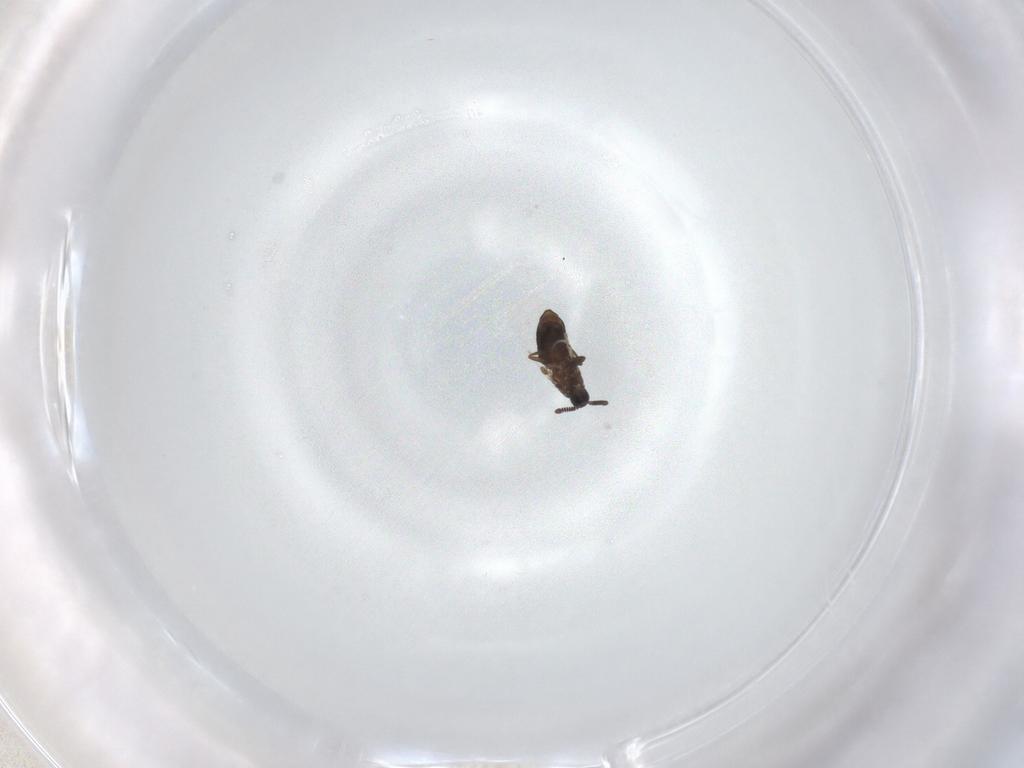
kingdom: Animalia
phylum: Arthropoda
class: Insecta
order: Diptera
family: Scatopsidae
